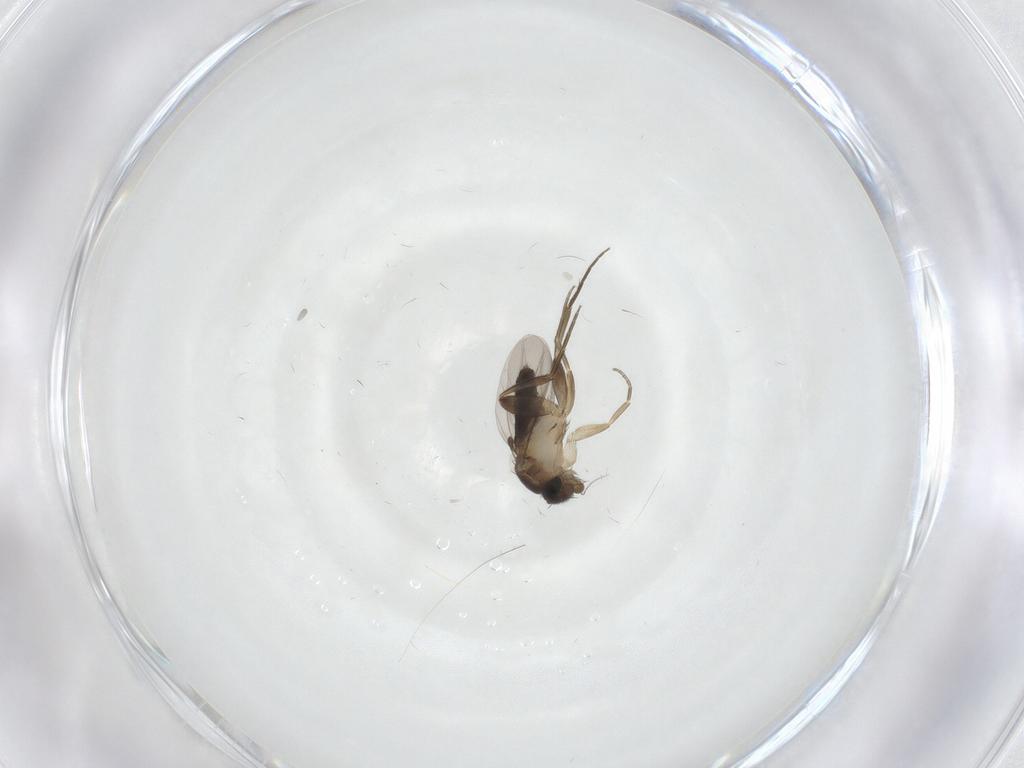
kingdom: Animalia
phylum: Arthropoda
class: Insecta
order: Diptera
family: Phoridae
